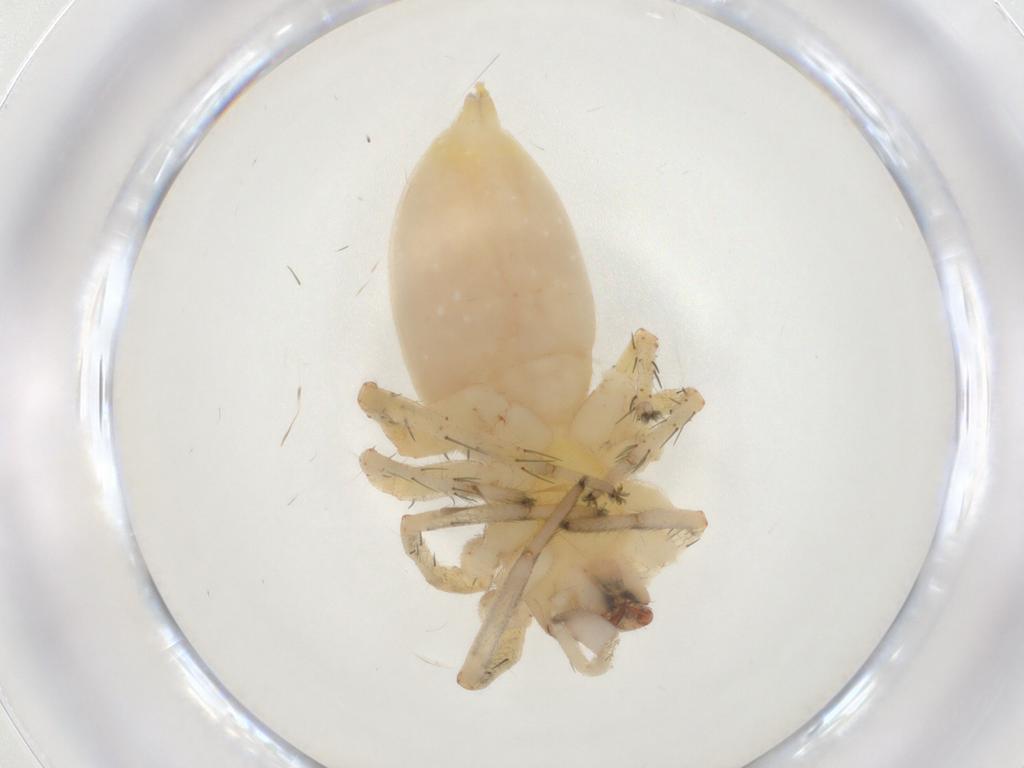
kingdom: Animalia
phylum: Arthropoda
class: Arachnida
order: Araneae
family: Anyphaenidae
